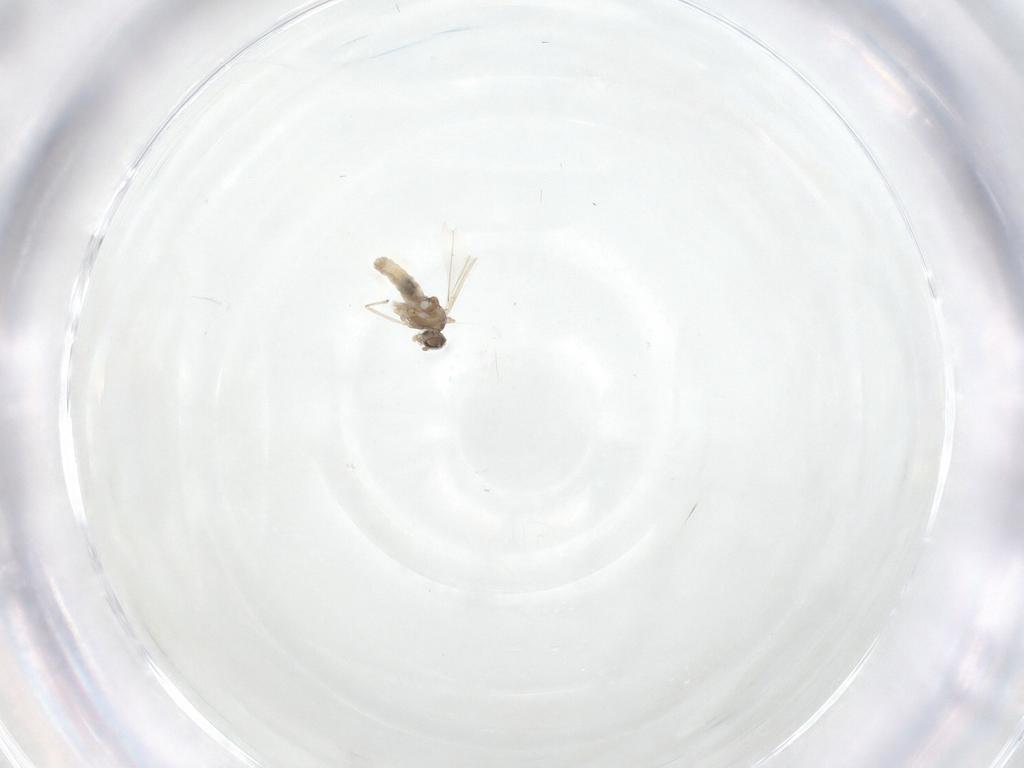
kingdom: Animalia
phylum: Arthropoda
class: Insecta
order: Diptera
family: Cecidomyiidae
